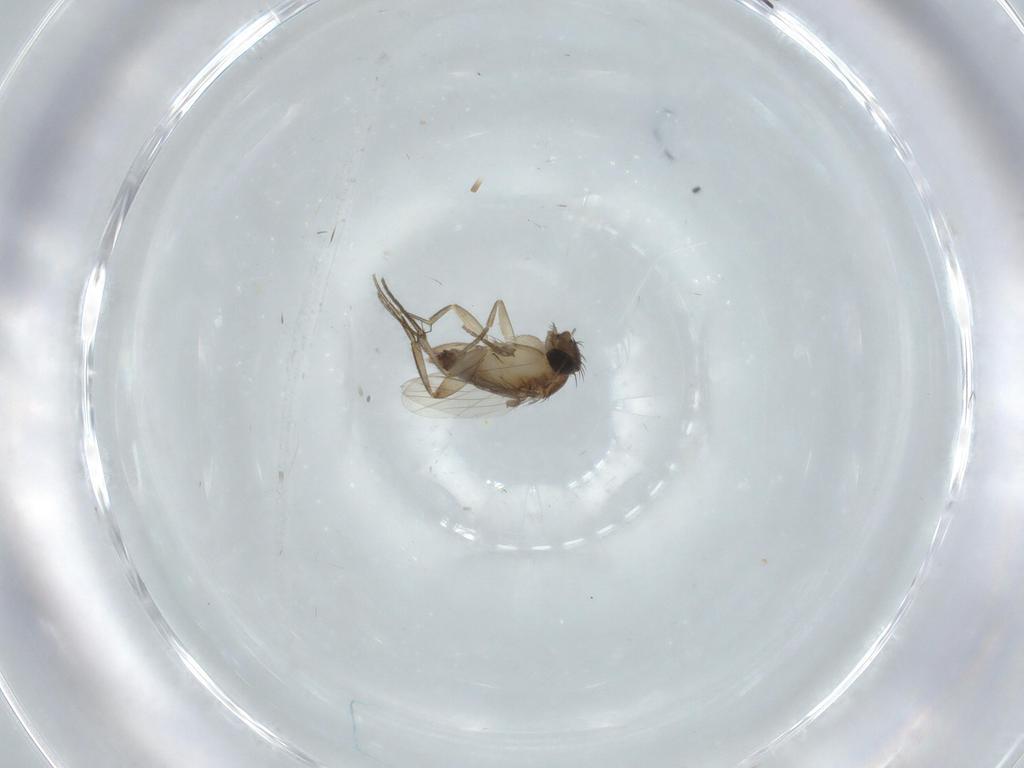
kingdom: Animalia
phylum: Arthropoda
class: Insecta
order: Diptera
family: Phoridae
